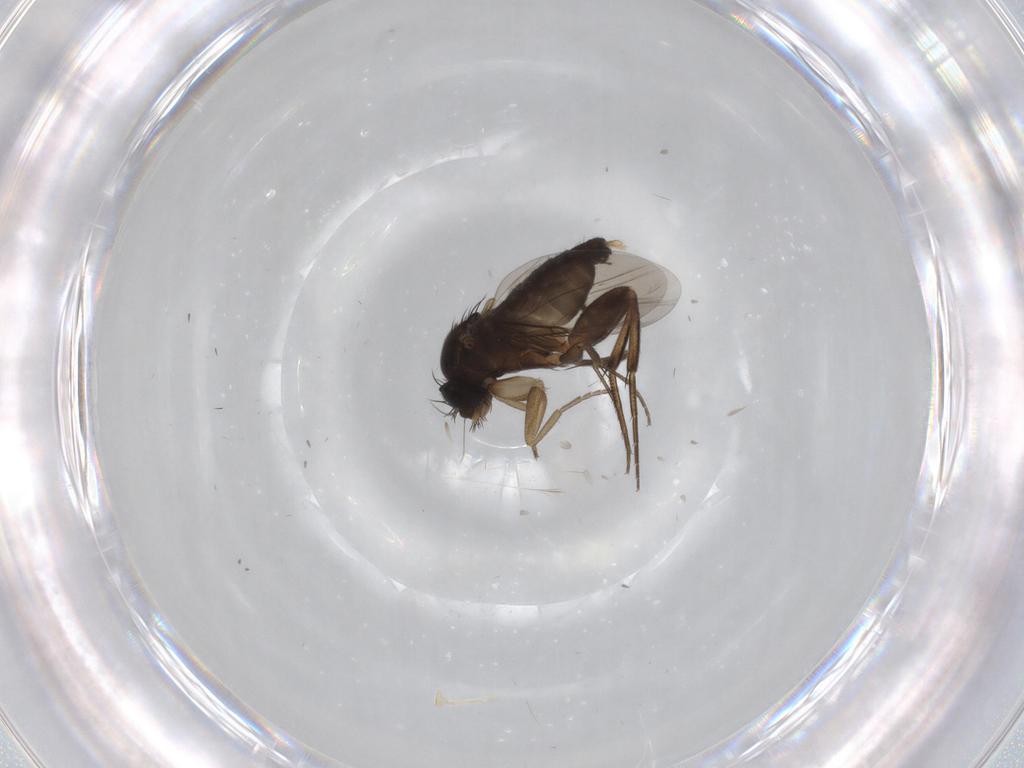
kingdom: Animalia
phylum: Arthropoda
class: Insecta
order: Diptera
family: Phoridae
